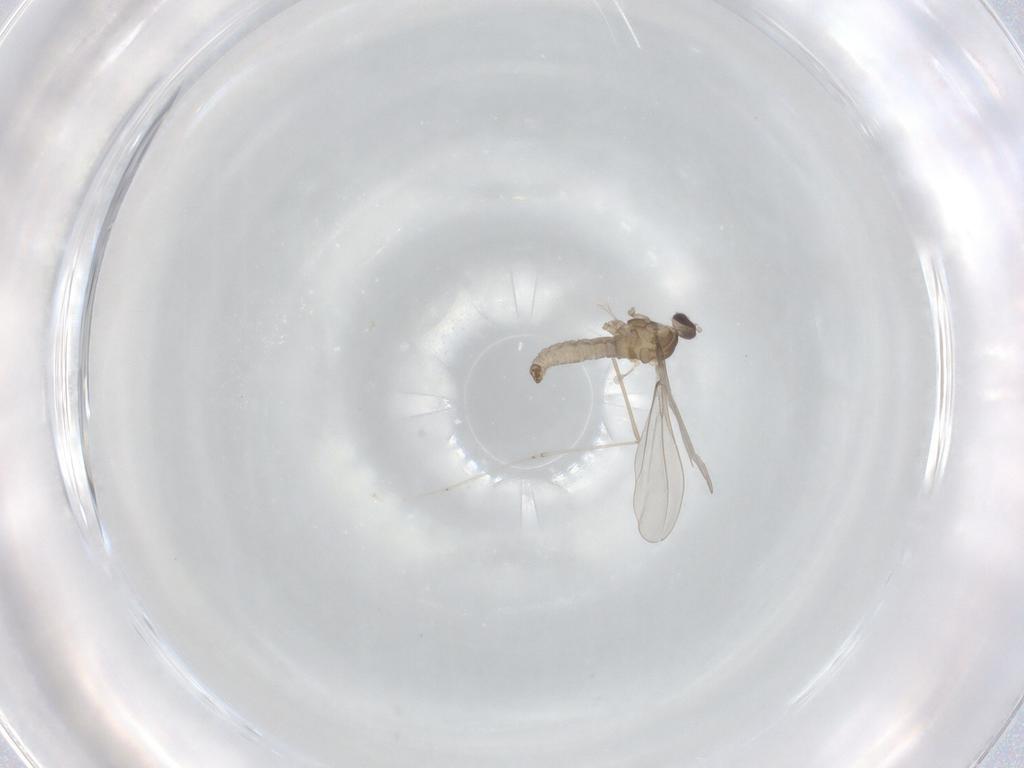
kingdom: Animalia
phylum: Arthropoda
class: Insecta
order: Diptera
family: Cecidomyiidae
